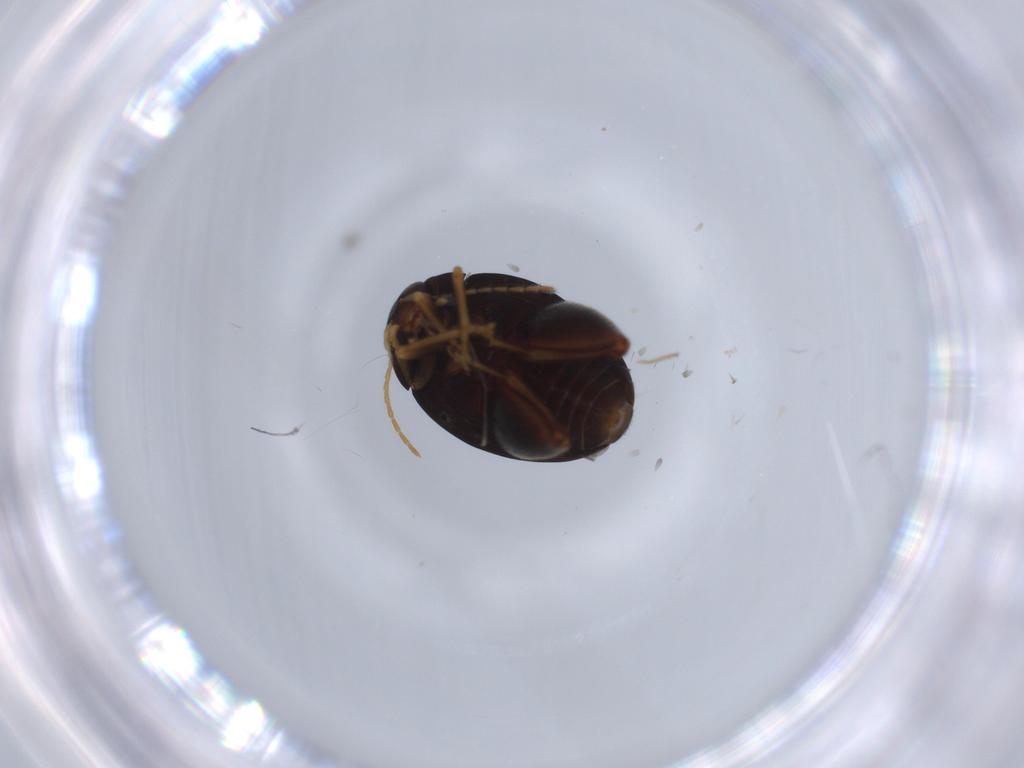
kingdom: Animalia
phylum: Arthropoda
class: Insecta
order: Coleoptera
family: Chrysomelidae
